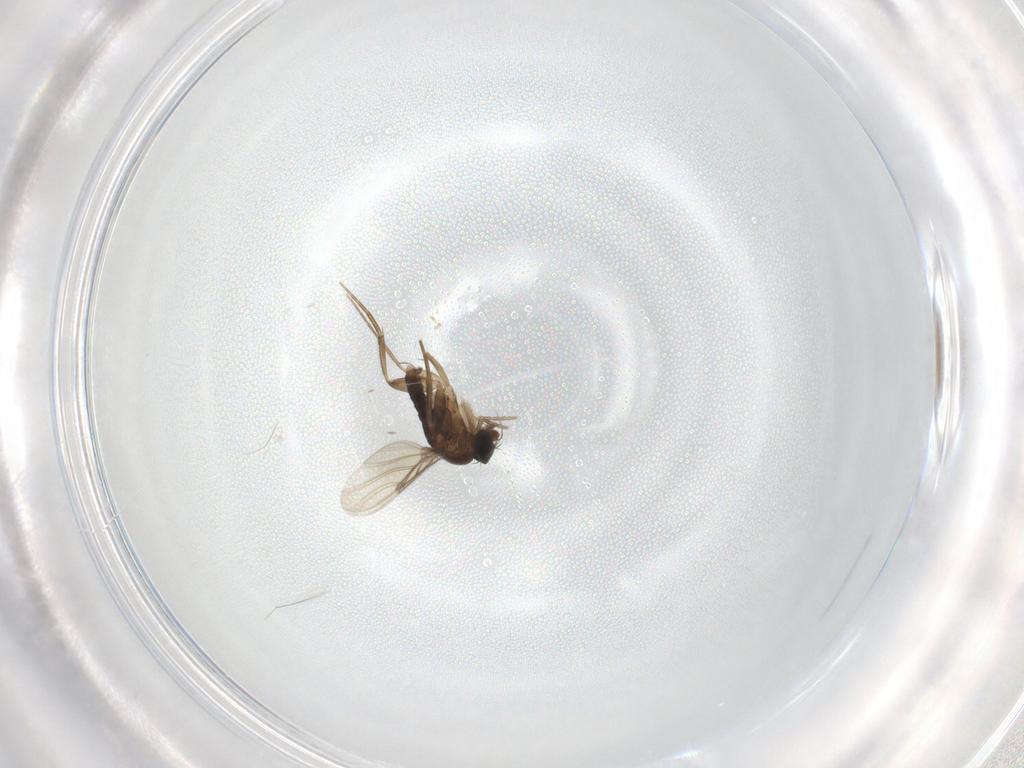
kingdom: Animalia
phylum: Arthropoda
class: Insecta
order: Diptera
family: Phoridae
